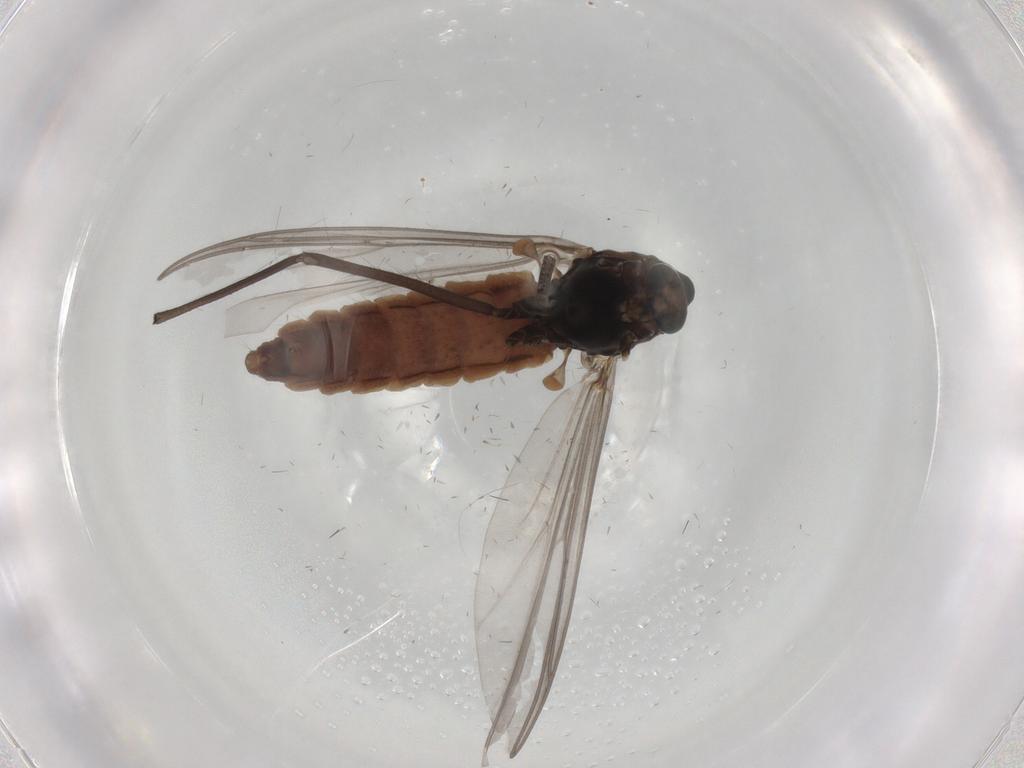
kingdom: Animalia
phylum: Arthropoda
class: Insecta
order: Diptera
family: Chironomidae
